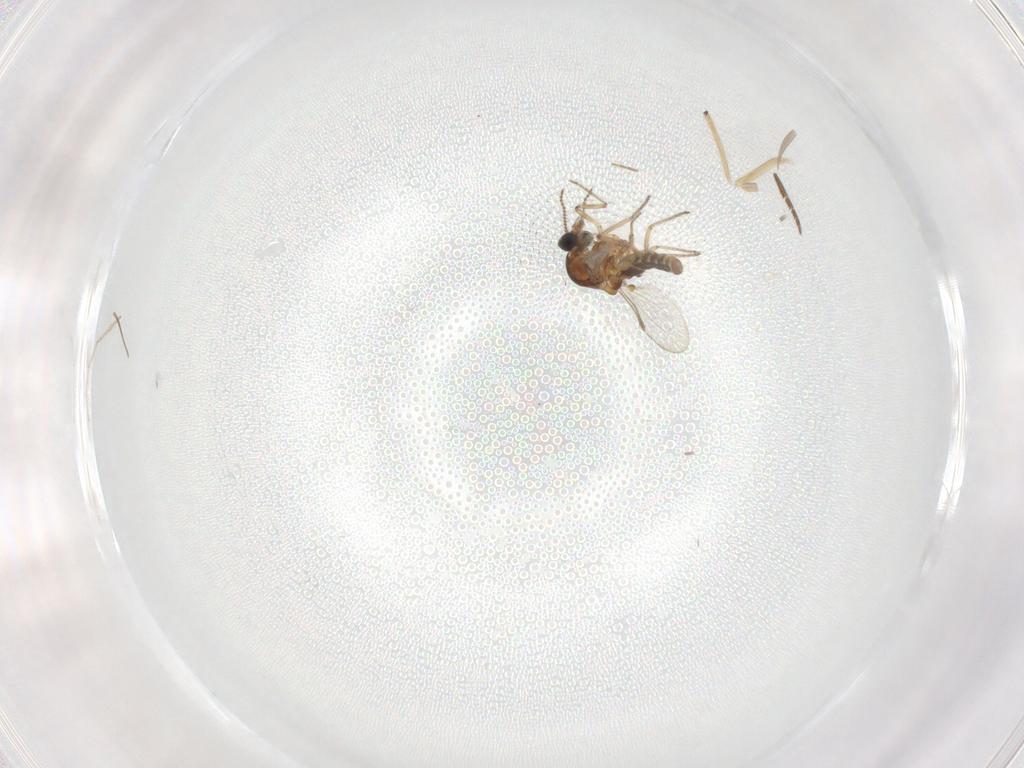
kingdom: Animalia
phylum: Arthropoda
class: Insecta
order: Diptera
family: Chironomidae
